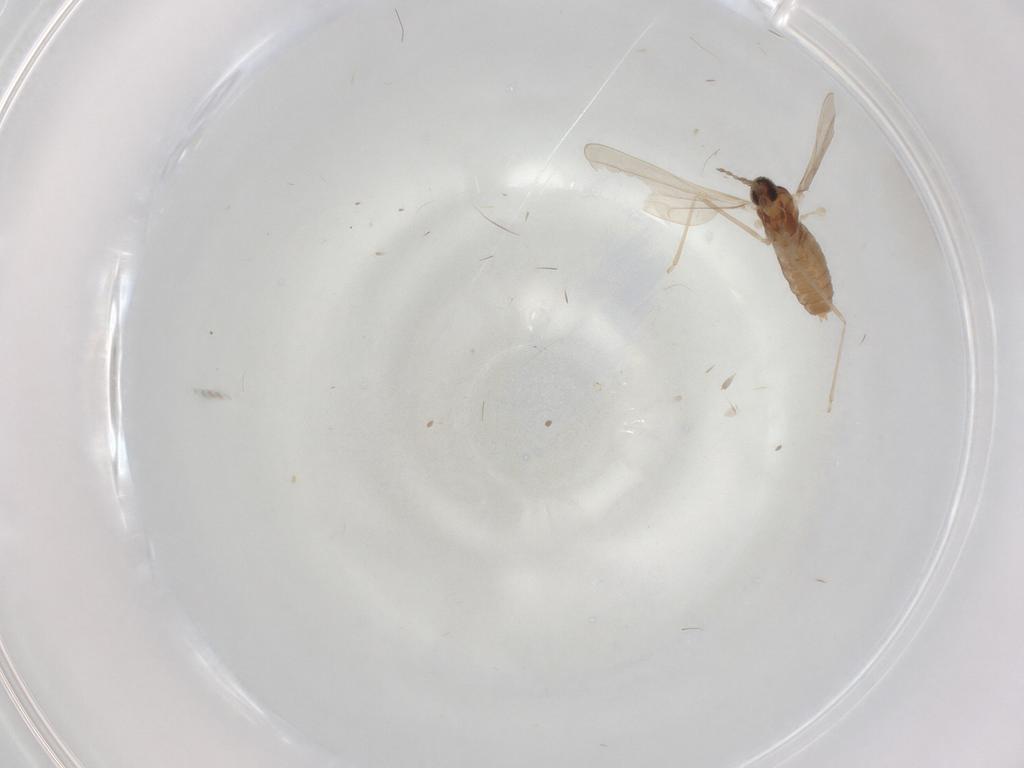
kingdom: Animalia
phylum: Arthropoda
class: Insecta
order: Diptera
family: Cecidomyiidae
